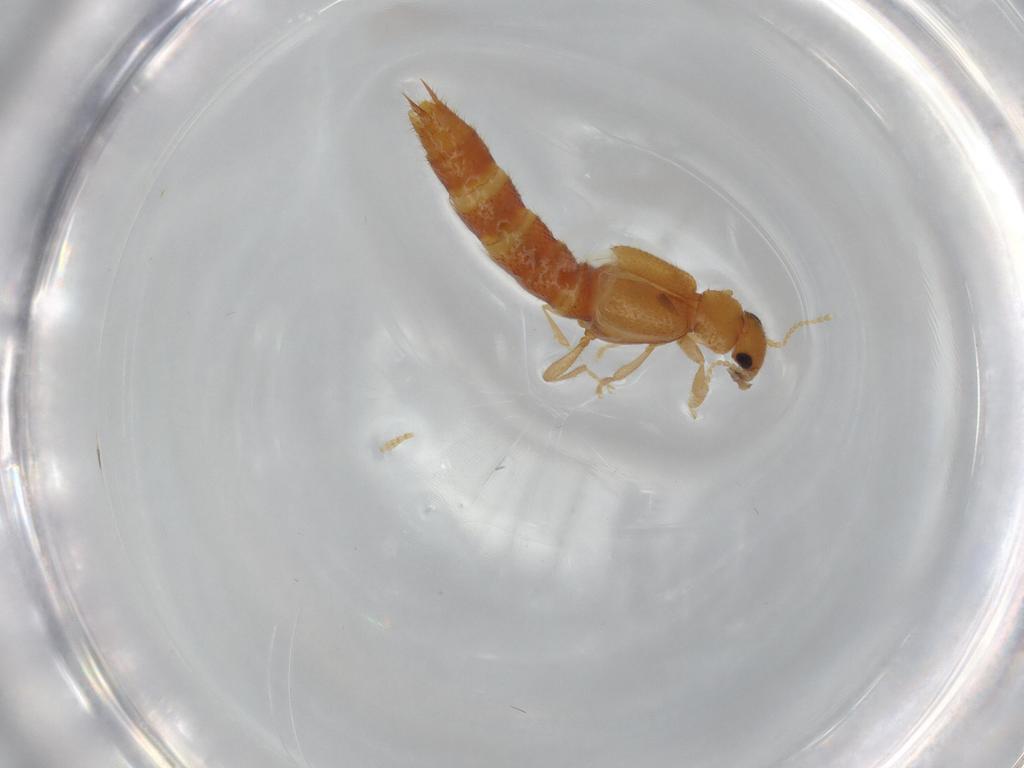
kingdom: Animalia
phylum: Arthropoda
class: Insecta
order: Coleoptera
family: Staphylinidae
